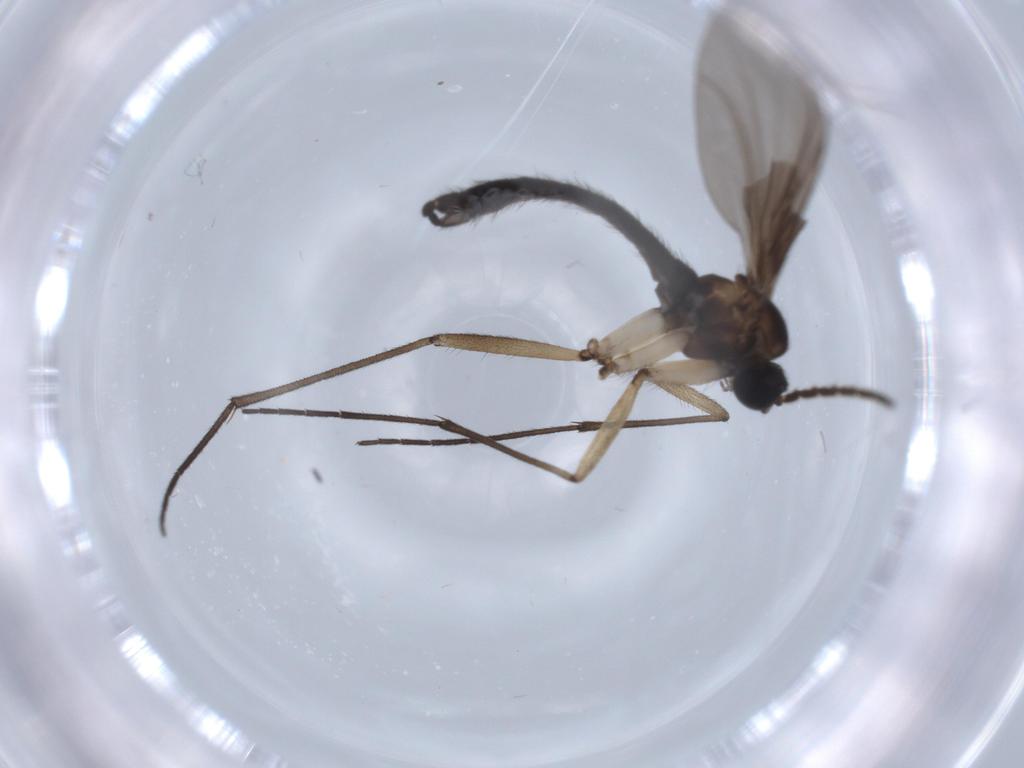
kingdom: Animalia
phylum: Arthropoda
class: Insecta
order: Diptera
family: Sciaridae
